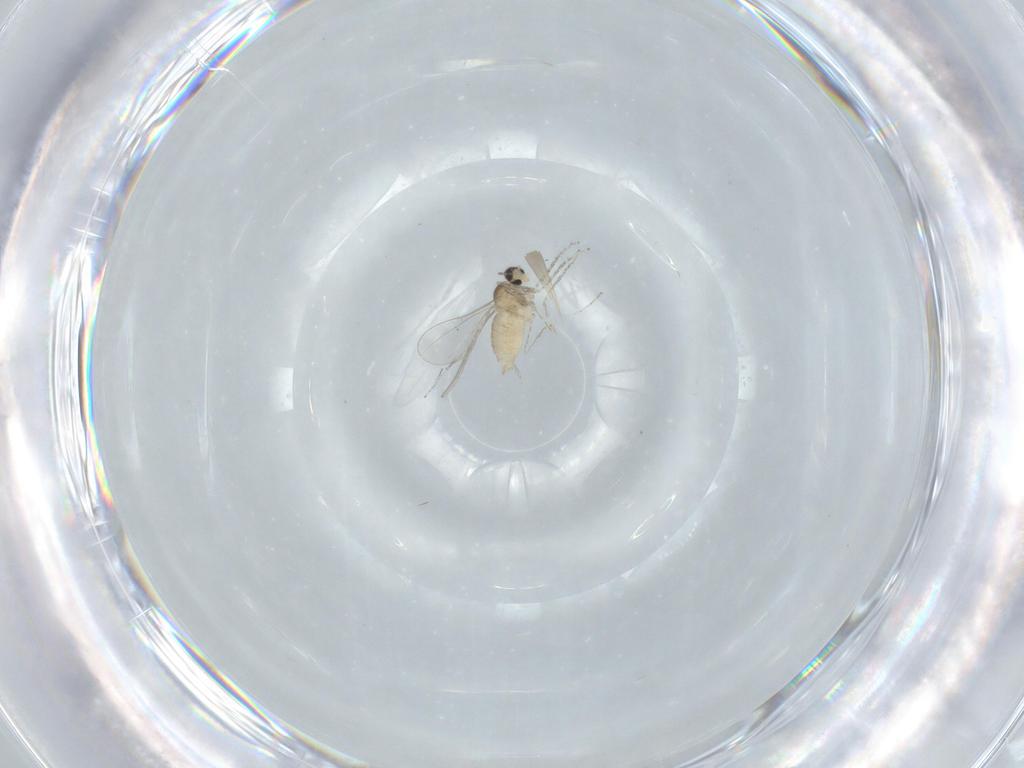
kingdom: Animalia
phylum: Arthropoda
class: Insecta
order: Diptera
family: Cecidomyiidae
